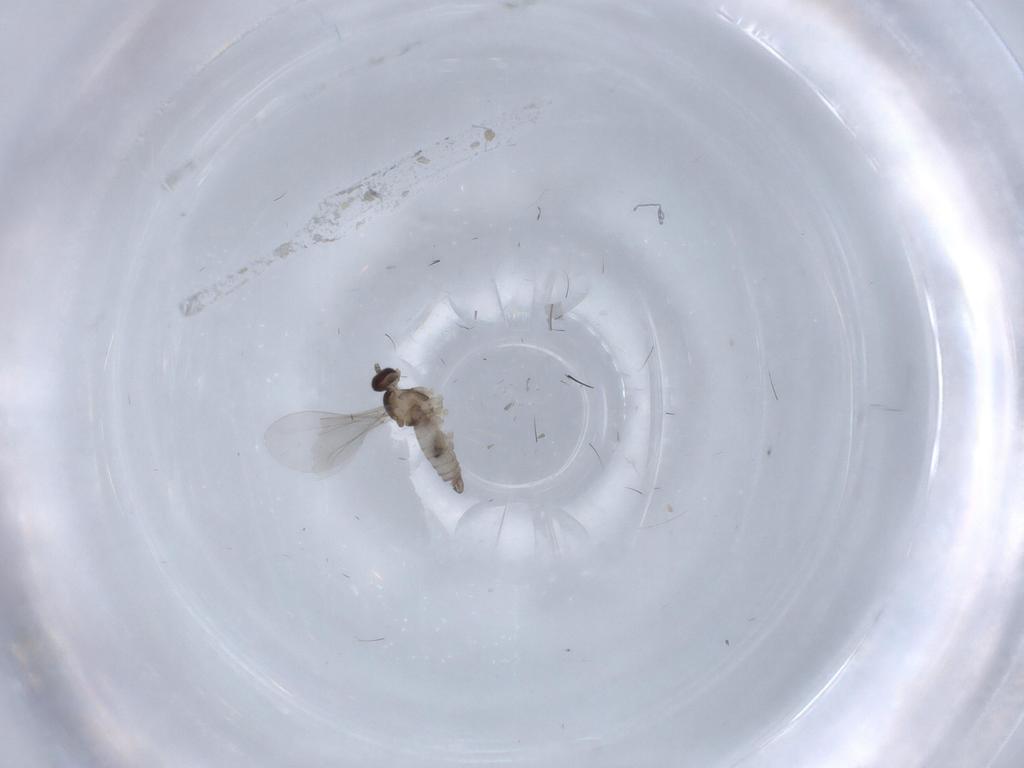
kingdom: Animalia
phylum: Arthropoda
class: Insecta
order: Diptera
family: Cecidomyiidae
